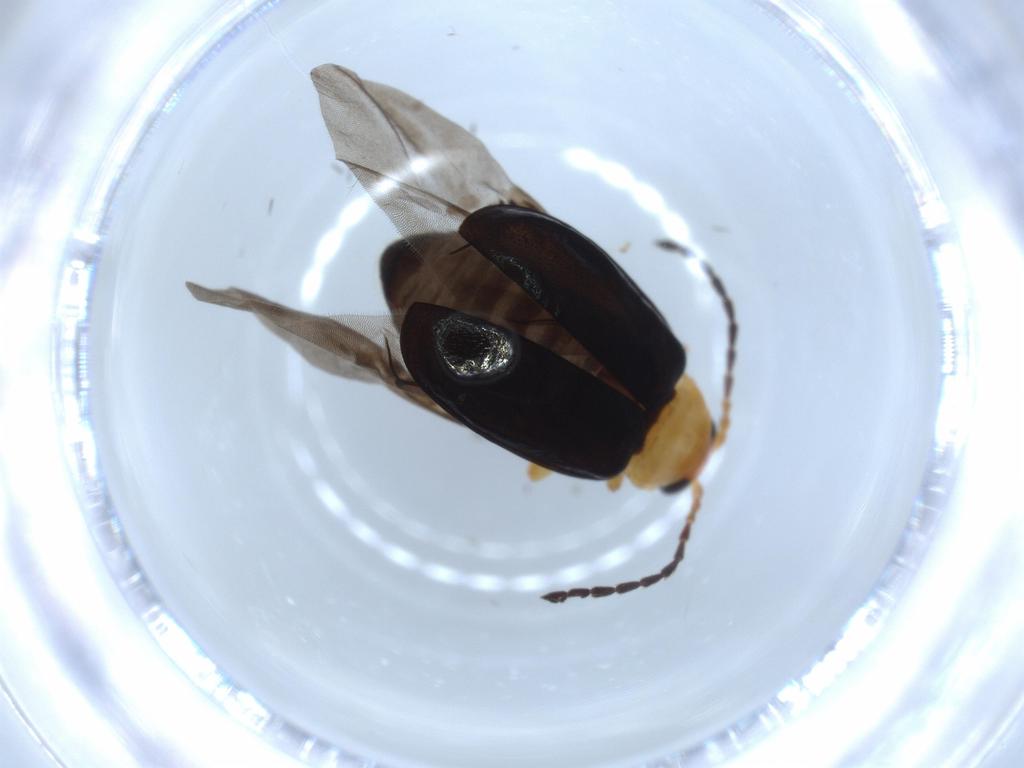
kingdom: Animalia
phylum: Arthropoda
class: Insecta
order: Coleoptera
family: Chrysomelidae
